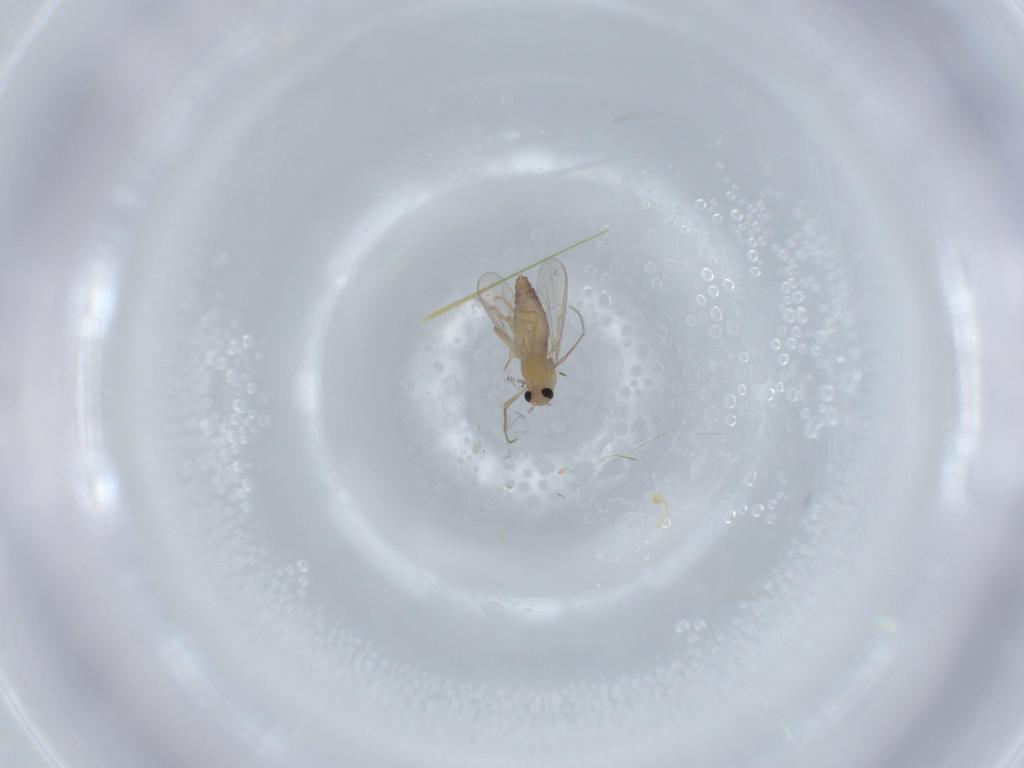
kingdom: Animalia
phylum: Arthropoda
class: Insecta
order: Diptera
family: Chironomidae
